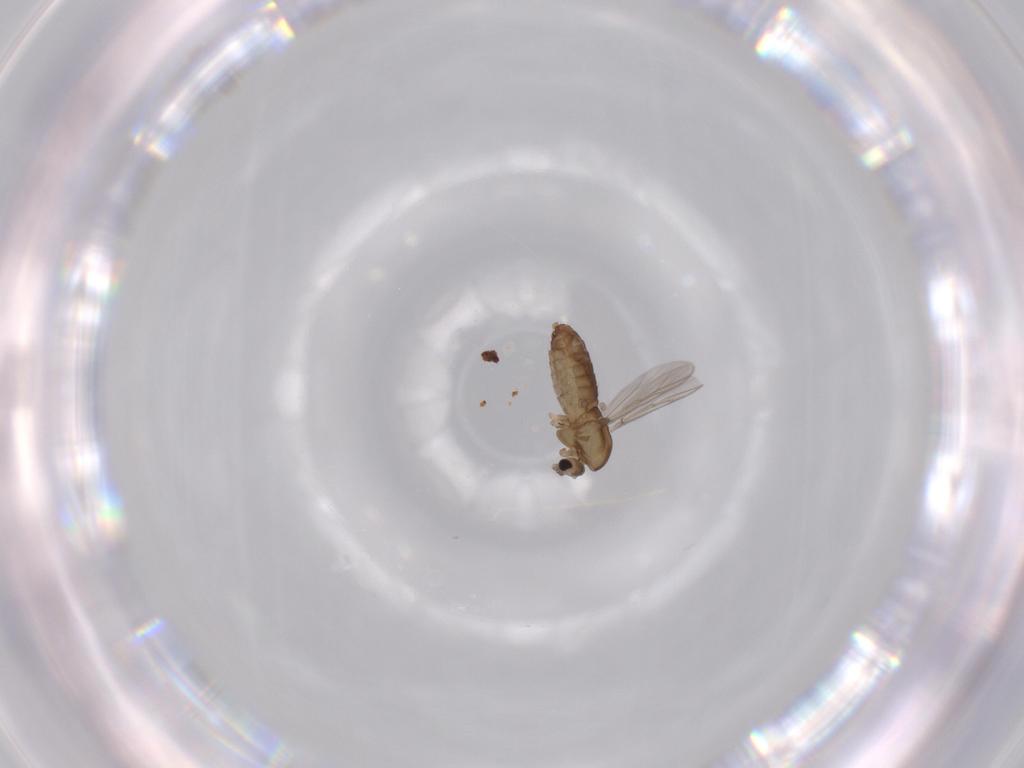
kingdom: Animalia
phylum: Arthropoda
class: Insecta
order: Diptera
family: Chironomidae
